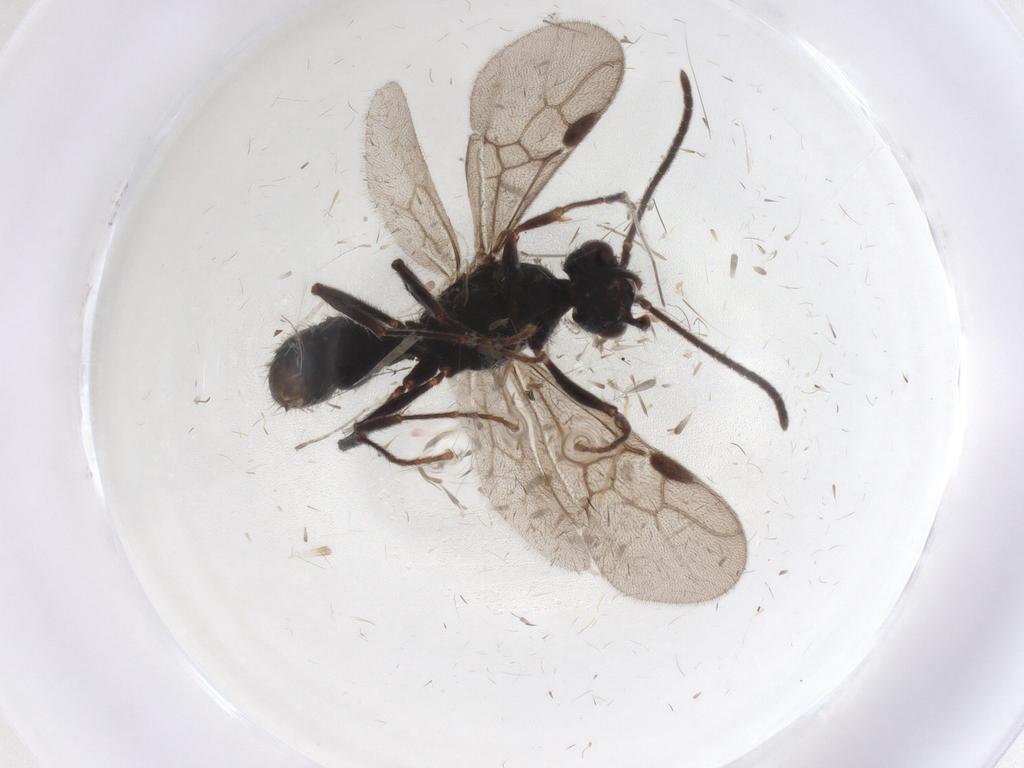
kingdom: Animalia
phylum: Arthropoda
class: Insecta
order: Hymenoptera
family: Formicidae
